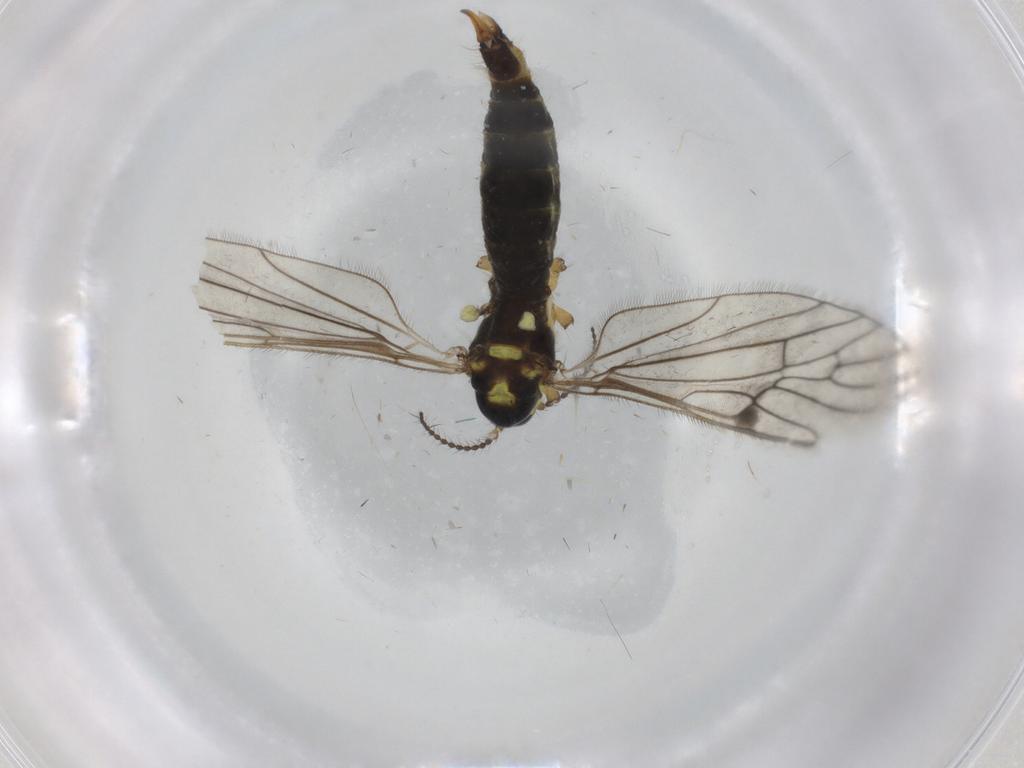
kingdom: Animalia
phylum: Arthropoda
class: Insecta
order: Diptera
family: Limoniidae
